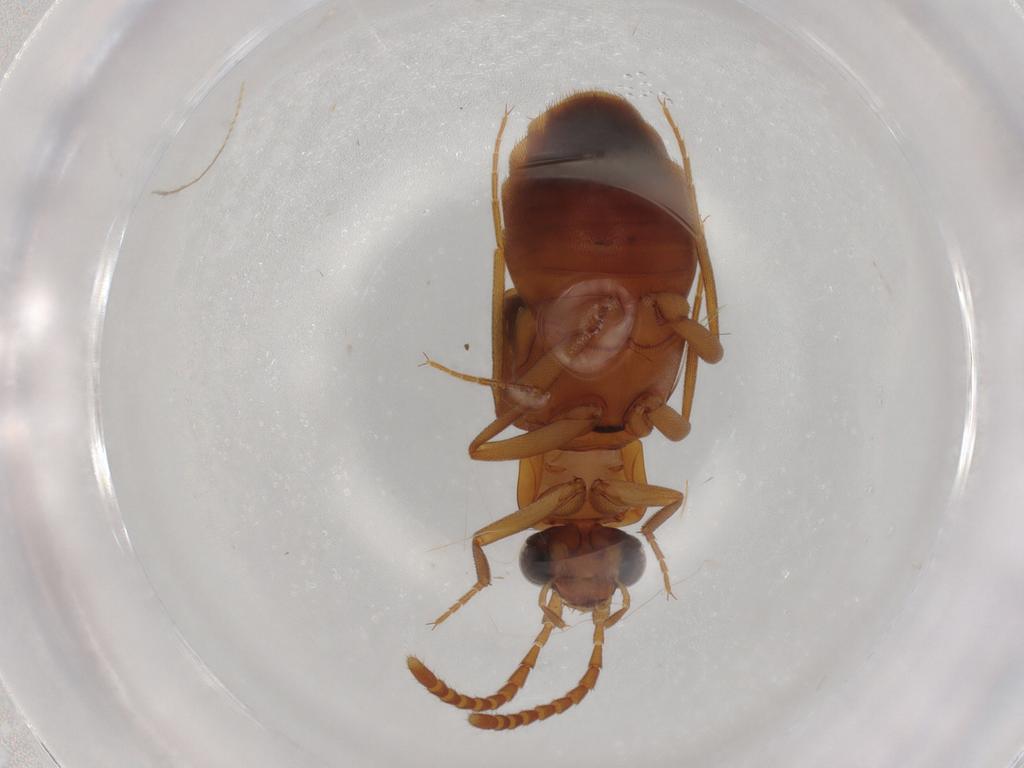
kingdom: Animalia
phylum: Arthropoda
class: Insecta
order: Coleoptera
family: Staphylinidae
